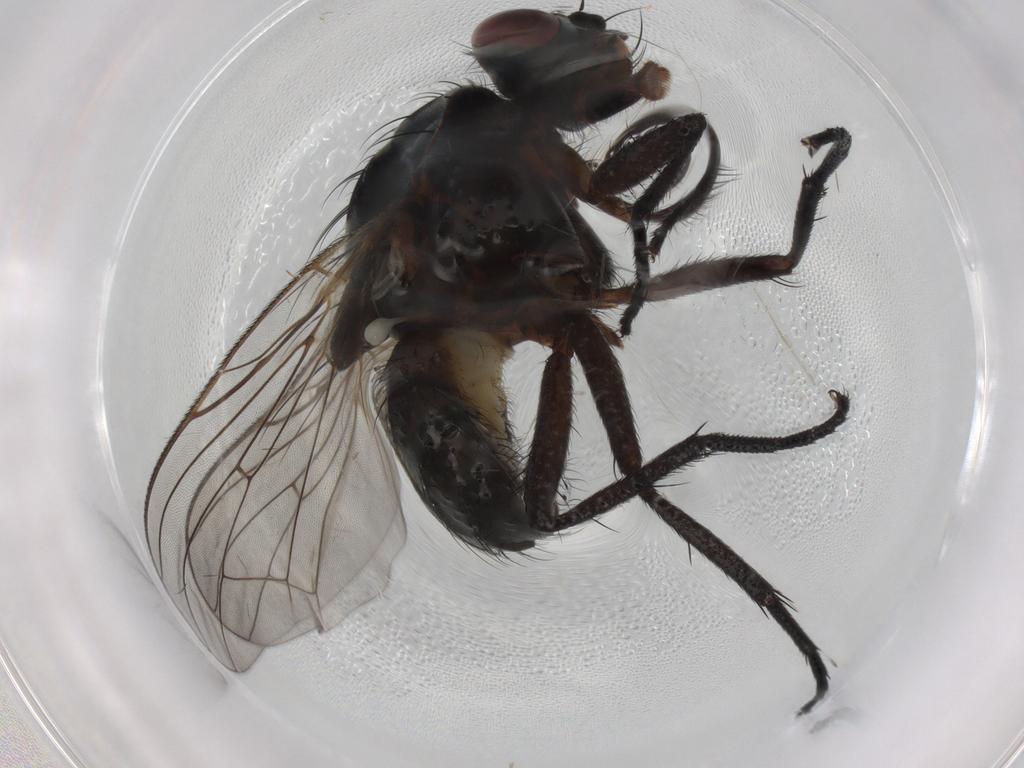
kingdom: Animalia
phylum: Arthropoda
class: Insecta
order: Diptera
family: Anthomyiidae
